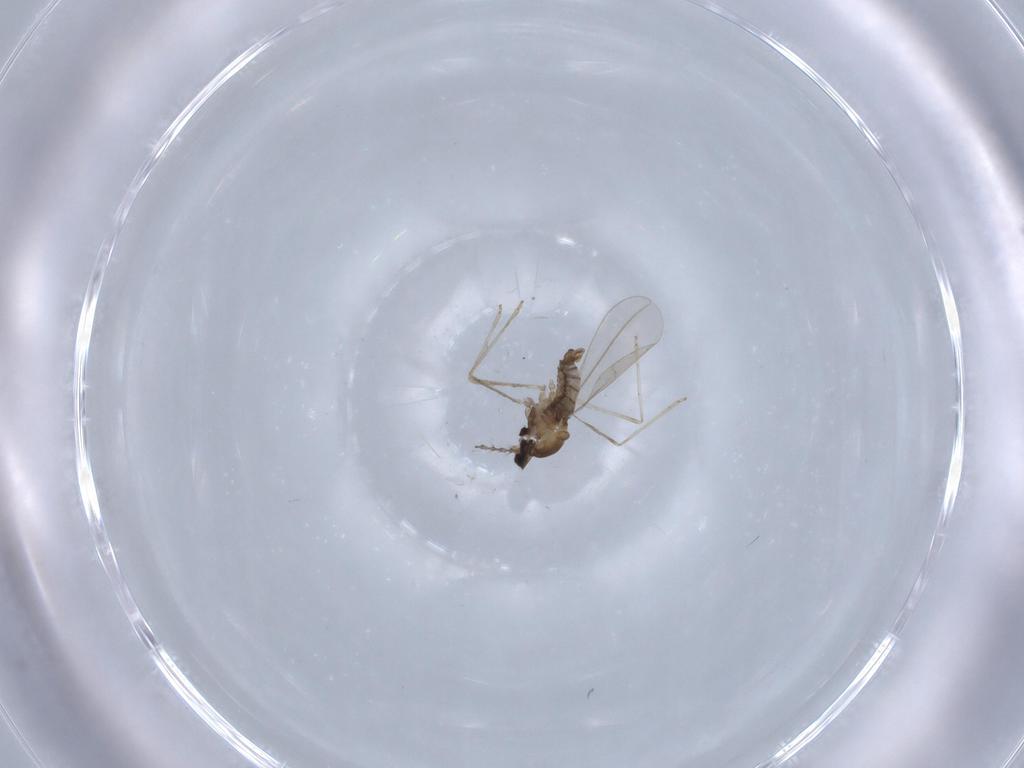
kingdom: Animalia
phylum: Arthropoda
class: Insecta
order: Diptera
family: Cecidomyiidae
